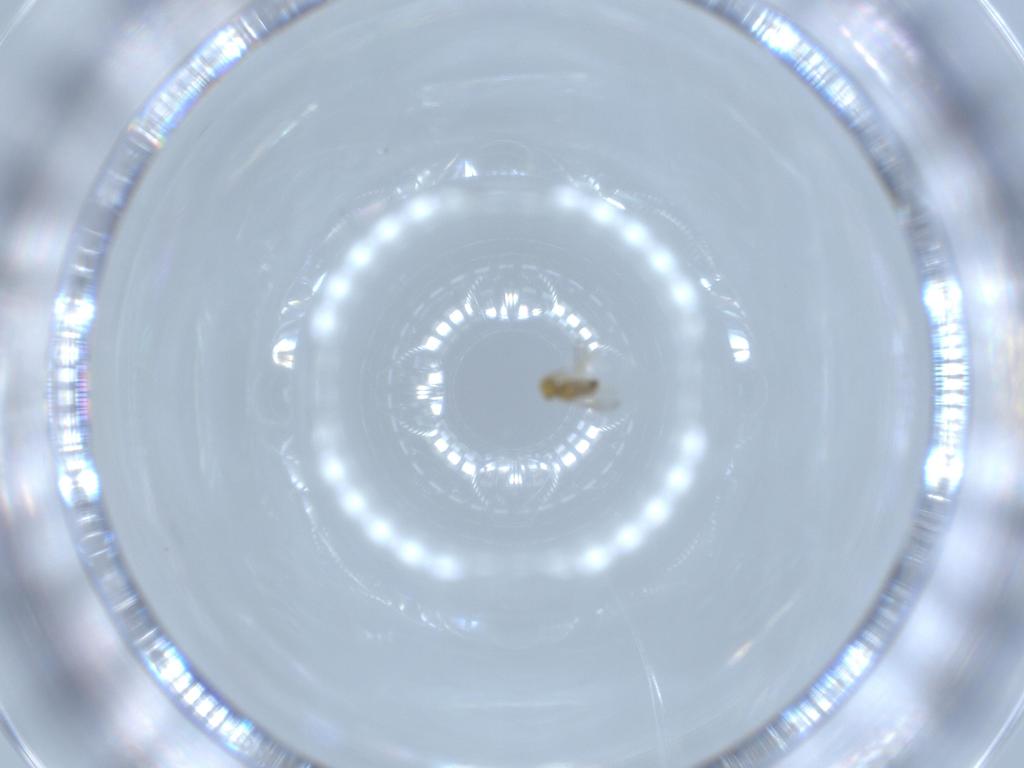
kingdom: Animalia
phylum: Arthropoda
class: Insecta
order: Hymenoptera
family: Aphelinidae
